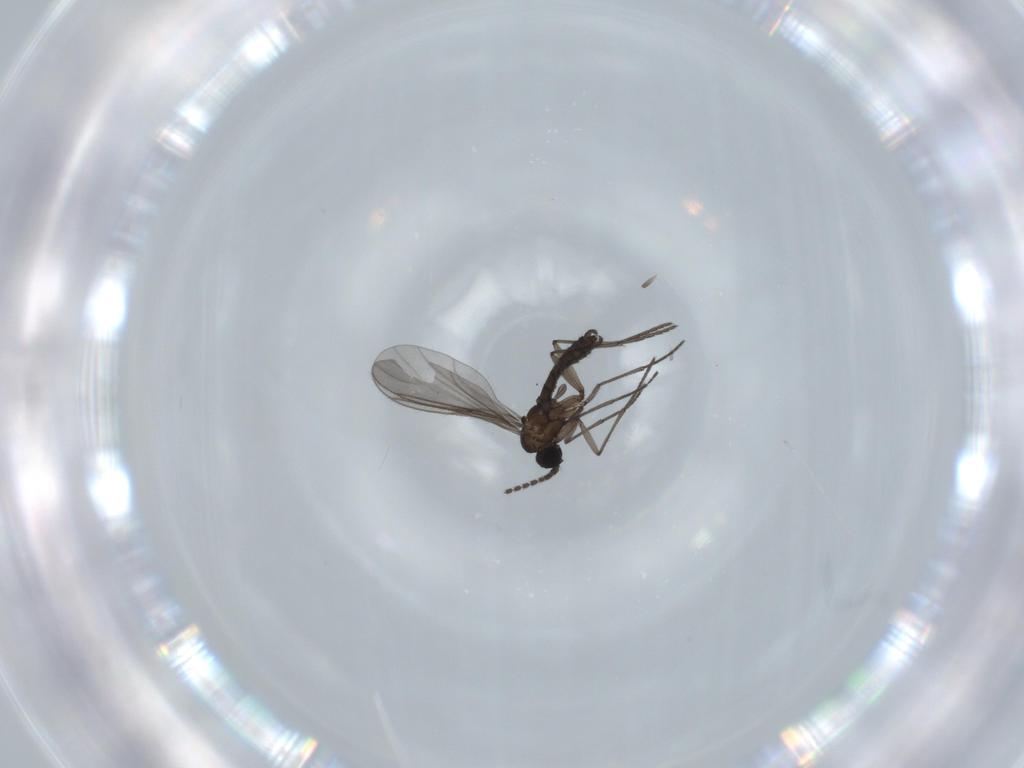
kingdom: Animalia
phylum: Arthropoda
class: Insecta
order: Diptera
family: Sciaridae
